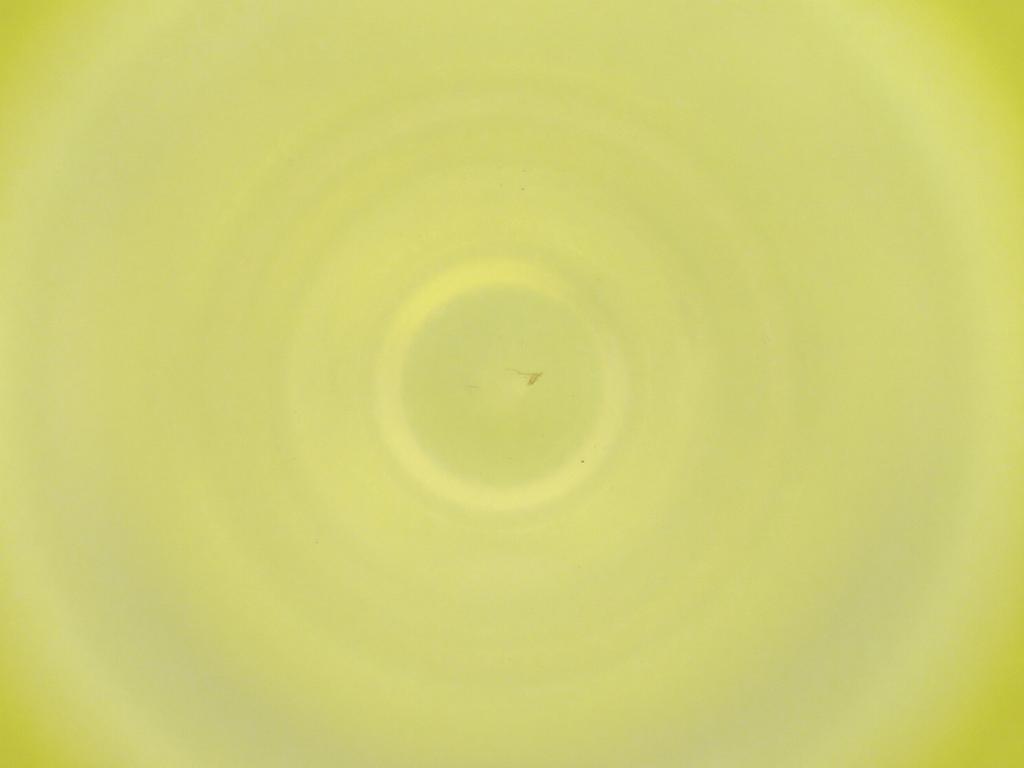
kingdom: Animalia
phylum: Arthropoda
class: Insecta
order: Diptera
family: Cecidomyiidae
